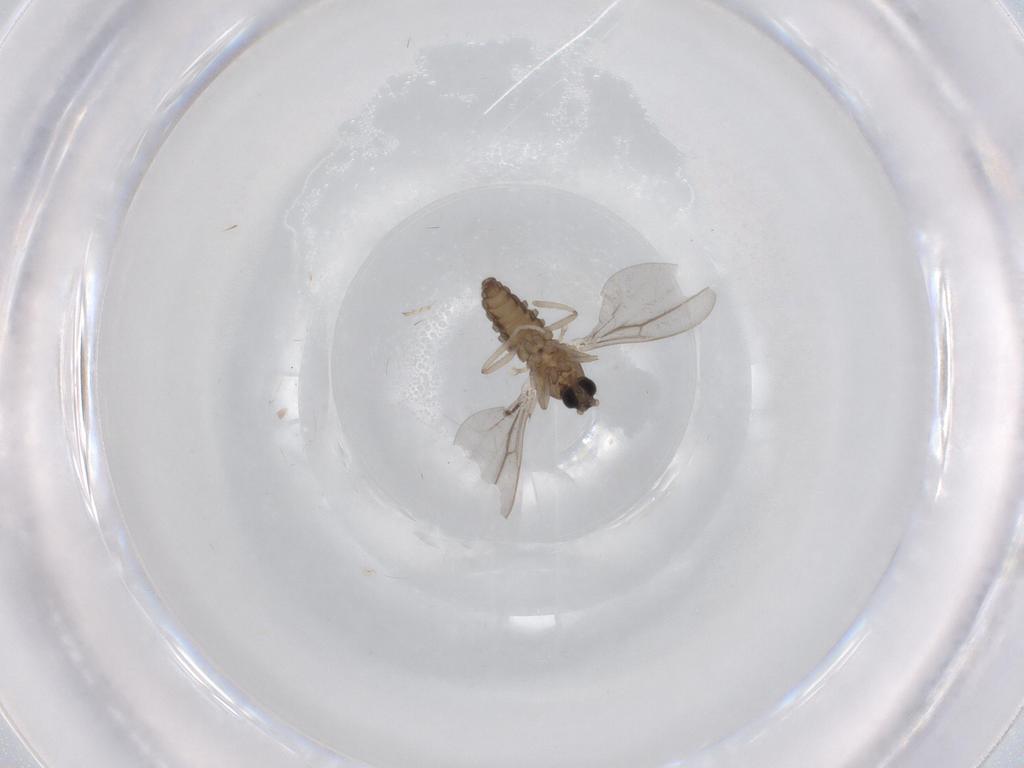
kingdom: Animalia
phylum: Arthropoda
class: Insecta
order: Diptera
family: Cecidomyiidae
